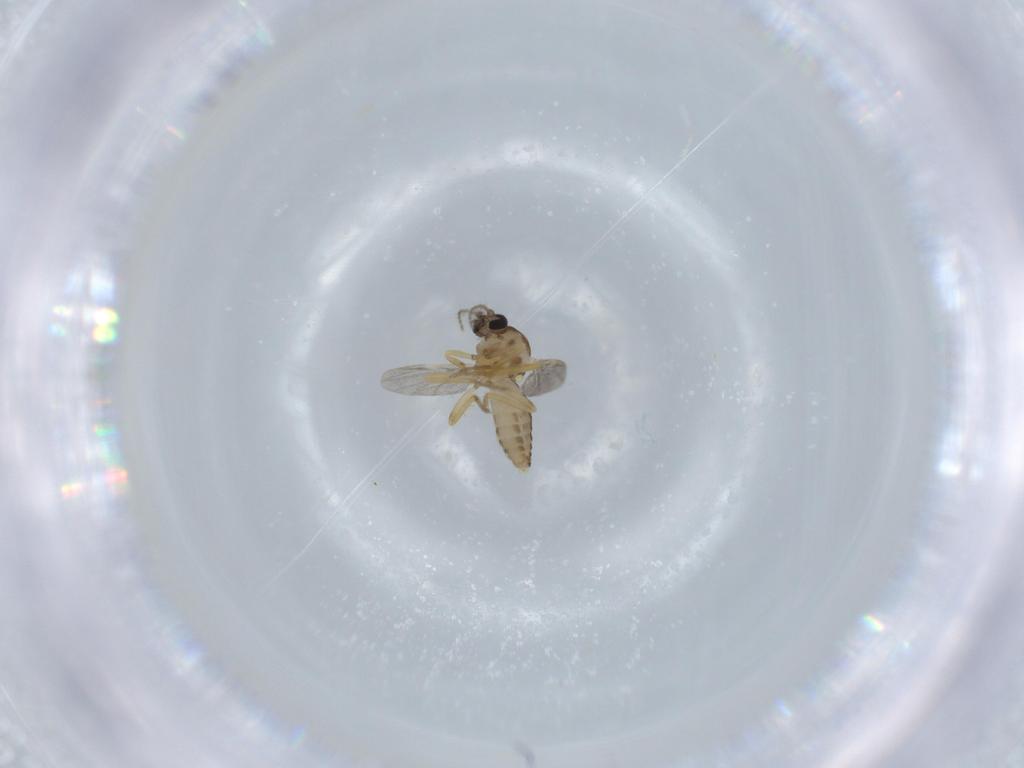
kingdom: Animalia
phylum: Arthropoda
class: Insecta
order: Diptera
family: Ceratopogonidae
